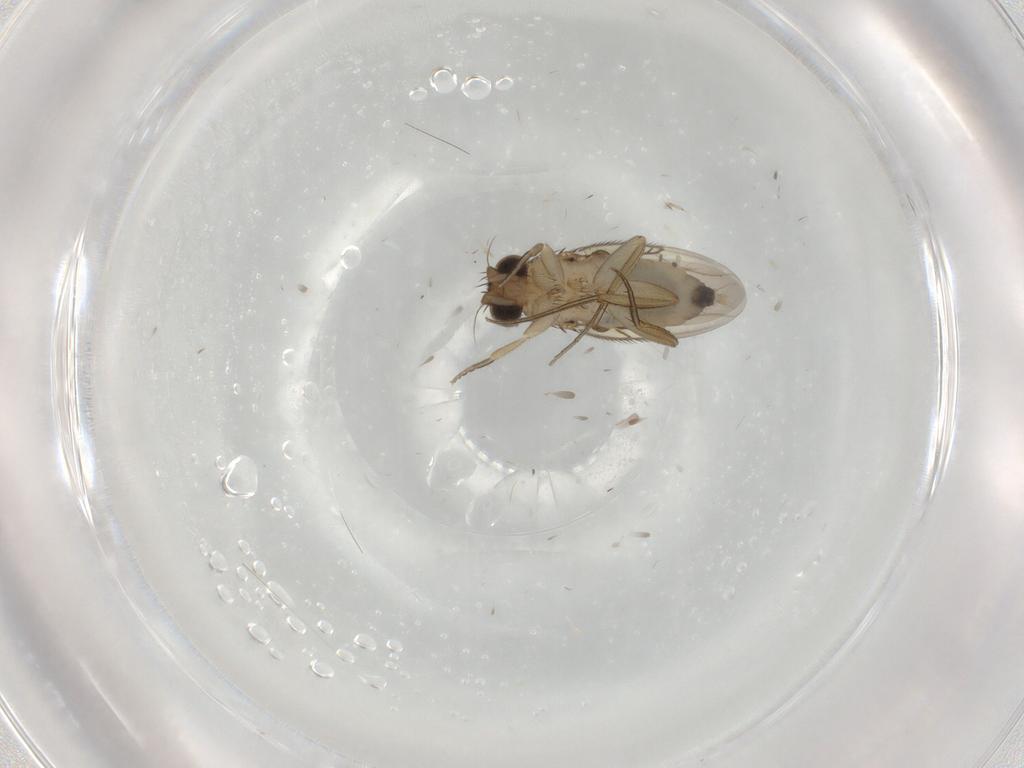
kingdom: Animalia
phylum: Arthropoda
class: Insecta
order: Diptera
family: Phoridae
